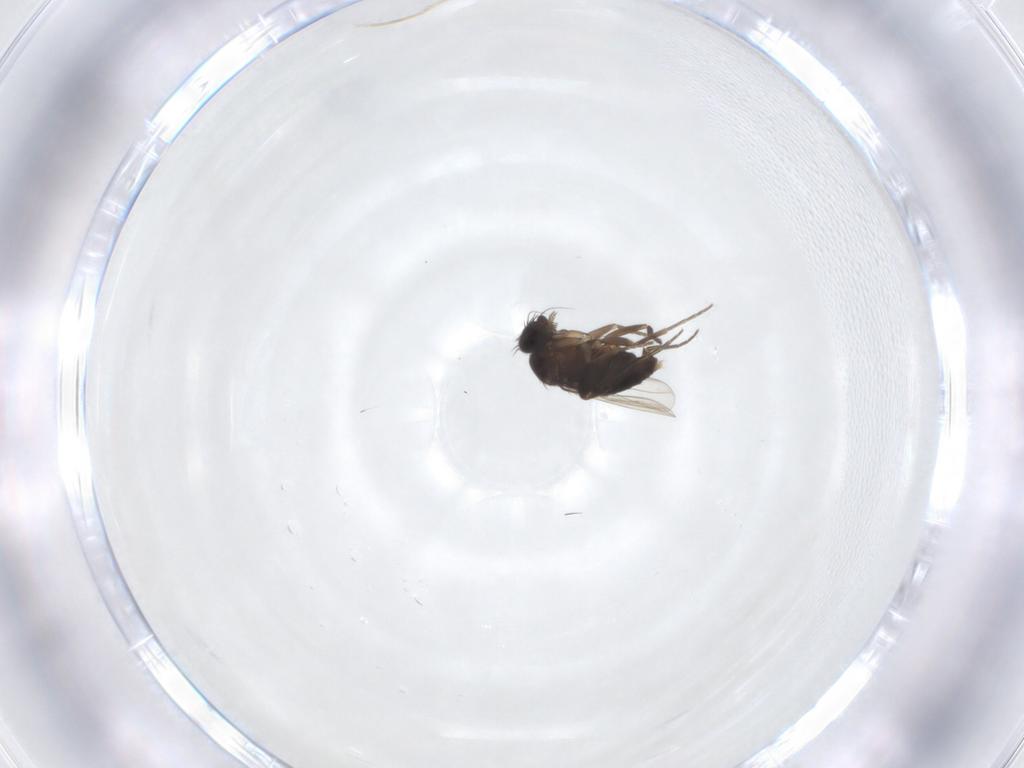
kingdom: Animalia
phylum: Arthropoda
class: Insecta
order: Diptera
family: Phoridae
